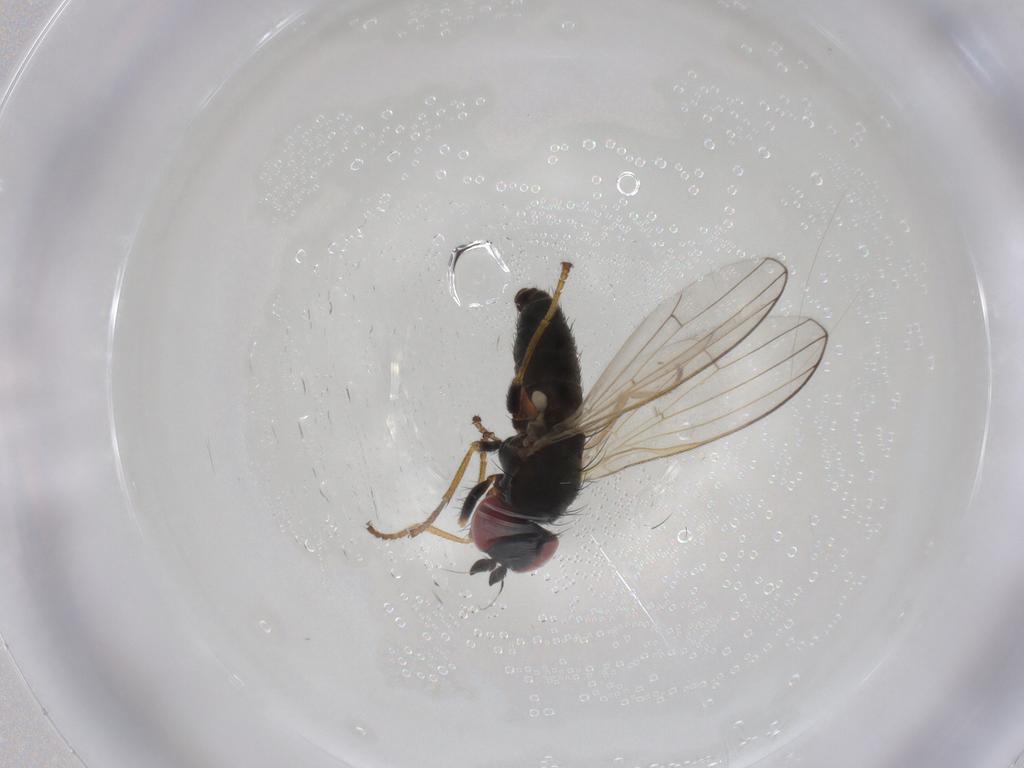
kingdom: Animalia
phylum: Arthropoda
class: Insecta
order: Diptera
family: Chamaemyiidae
